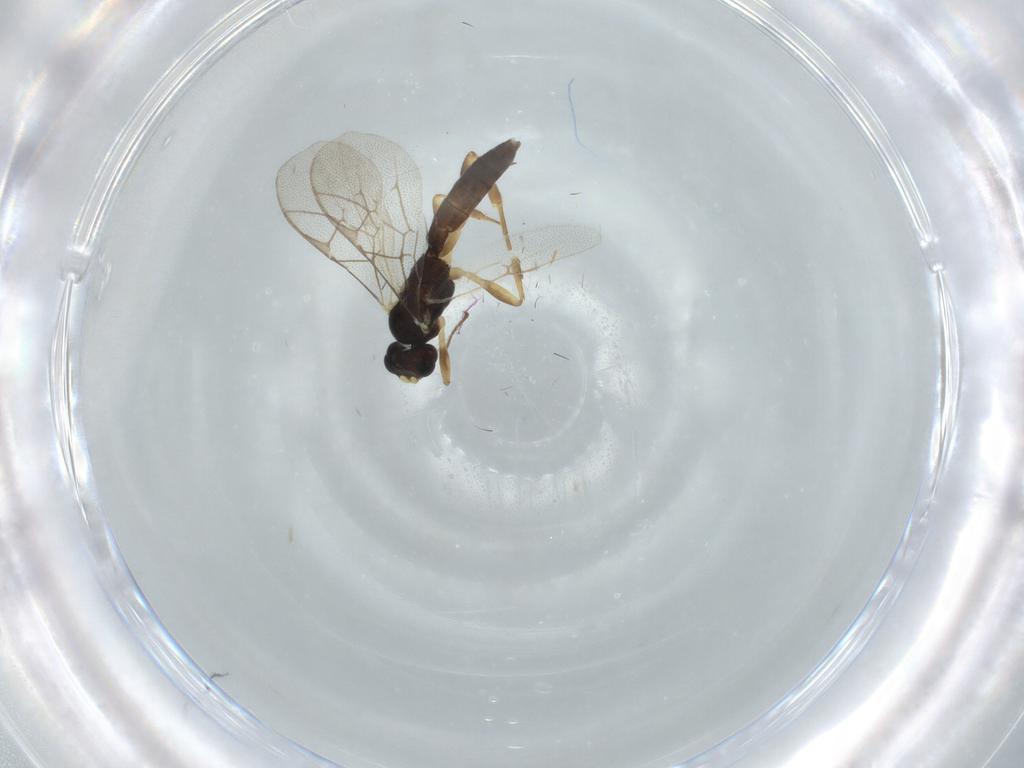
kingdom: Animalia
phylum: Arthropoda
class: Insecta
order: Hymenoptera
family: Ichneumonidae
